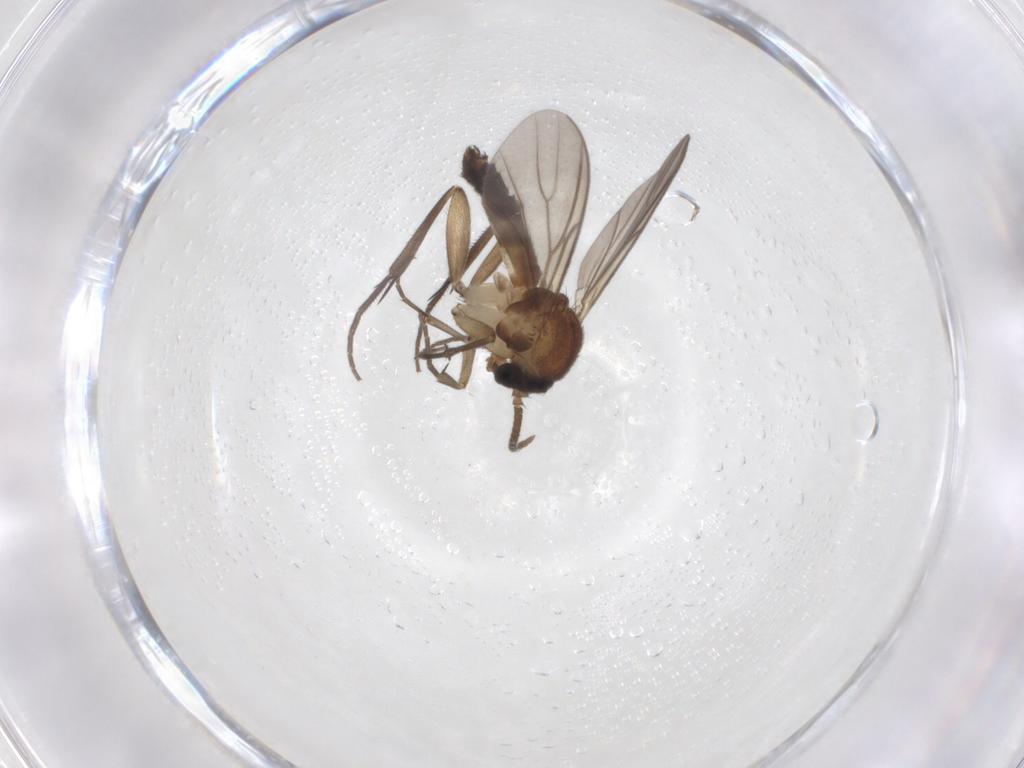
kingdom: Animalia
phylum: Arthropoda
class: Insecta
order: Diptera
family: Mycetophilidae
